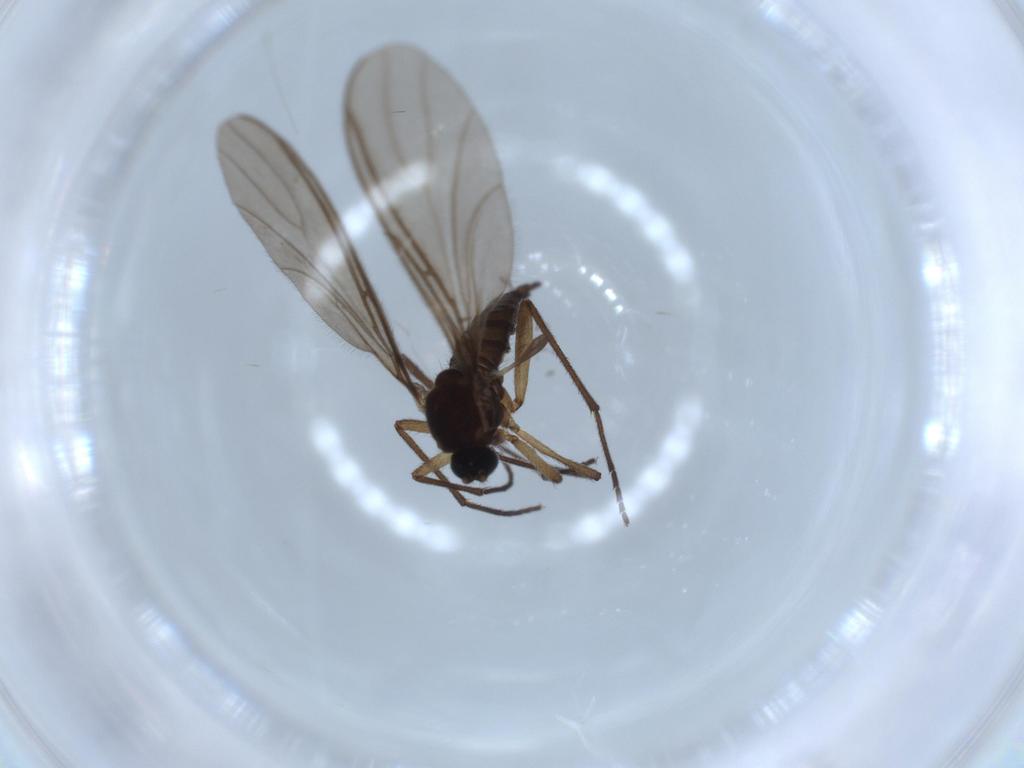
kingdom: Animalia
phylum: Arthropoda
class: Insecta
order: Diptera
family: Sciaridae
